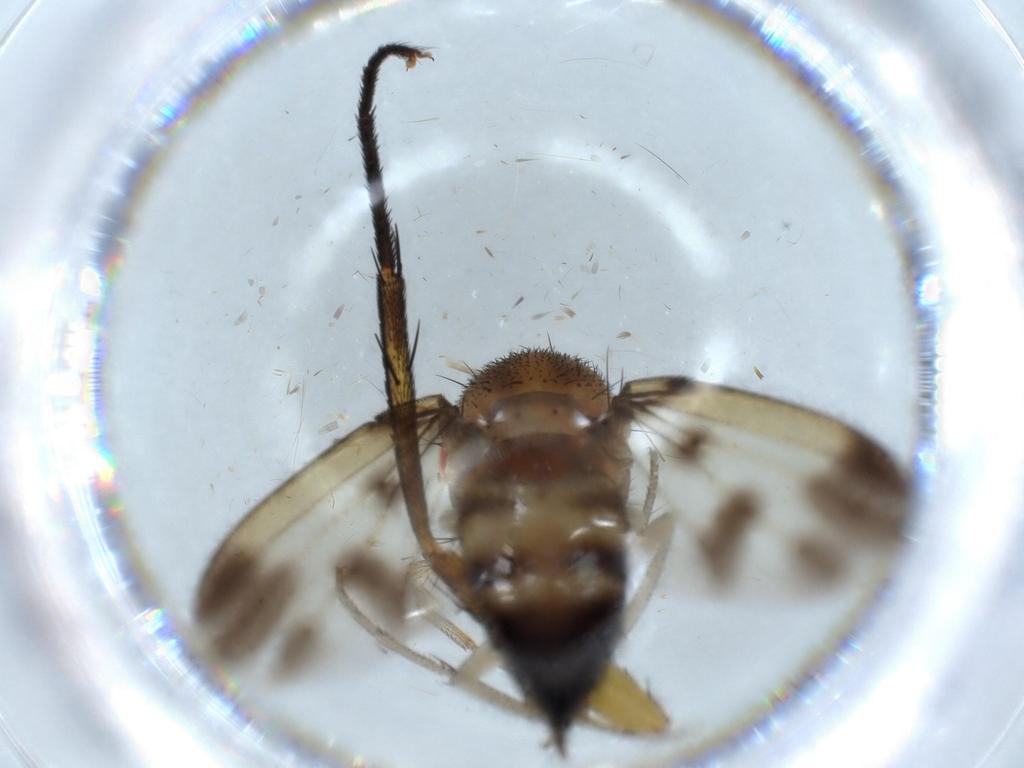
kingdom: Animalia
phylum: Arthropoda
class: Insecta
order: Diptera
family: Drosophilidae
